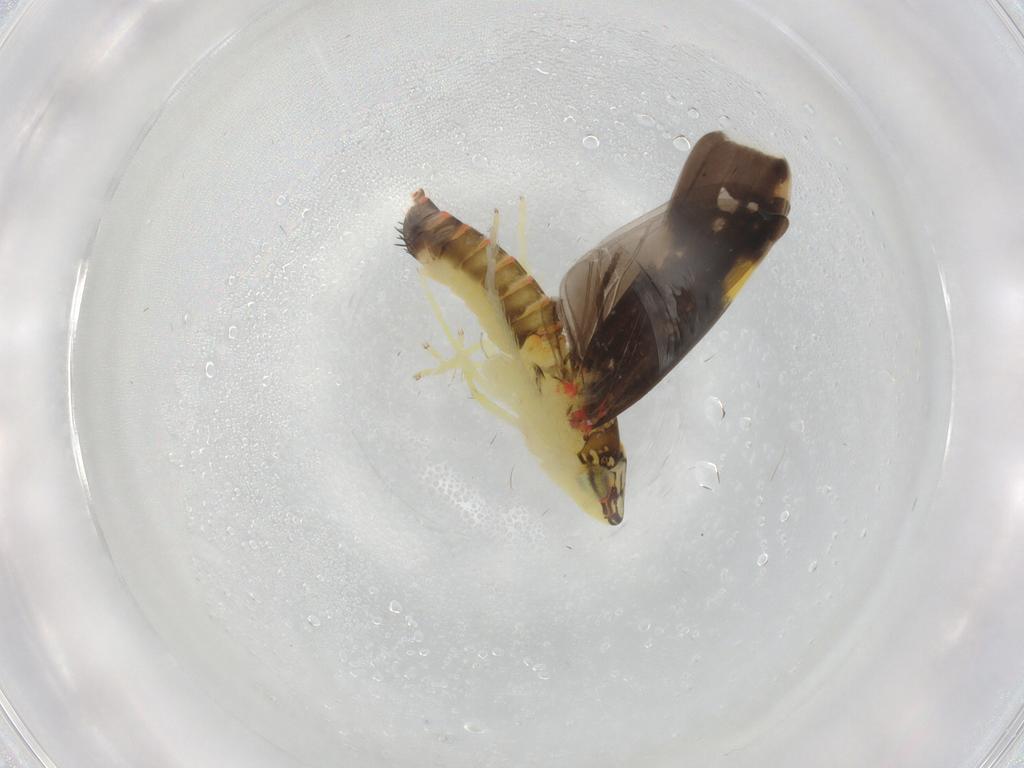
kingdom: Animalia
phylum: Arthropoda
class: Insecta
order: Hemiptera
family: Cicadellidae
